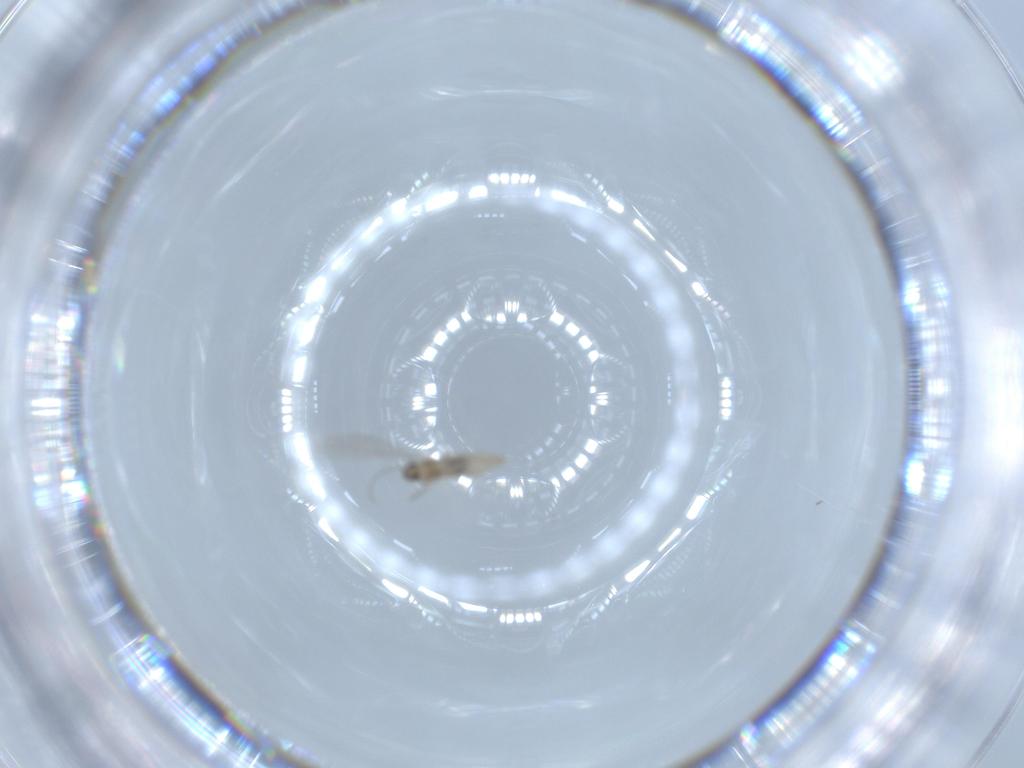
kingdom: Animalia
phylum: Arthropoda
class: Insecta
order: Diptera
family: Cecidomyiidae
